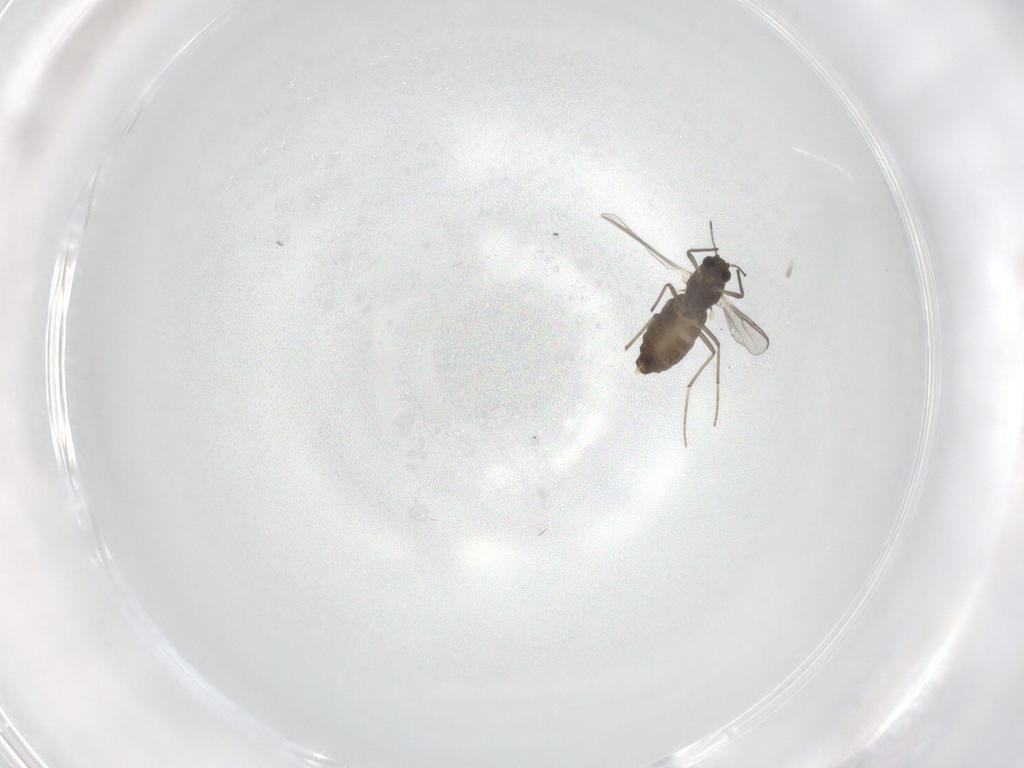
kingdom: Animalia
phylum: Arthropoda
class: Insecta
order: Diptera
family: Chironomidae
